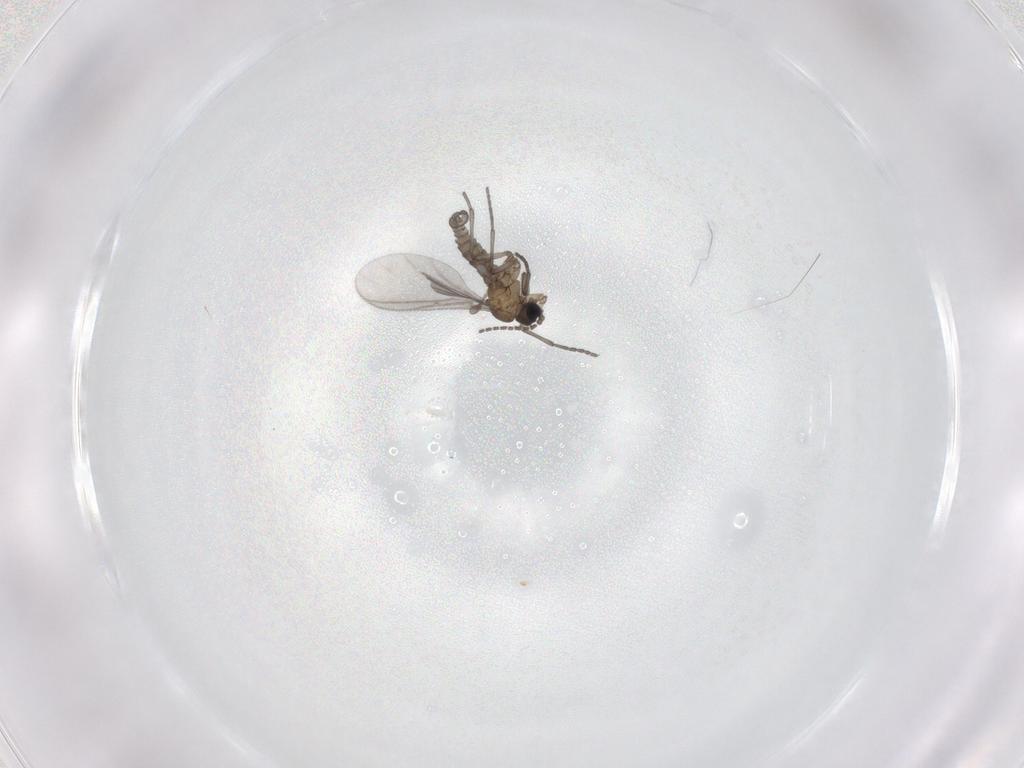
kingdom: Animalia
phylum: Arthropoda
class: Insecta
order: Diptera
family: Sciaridae
